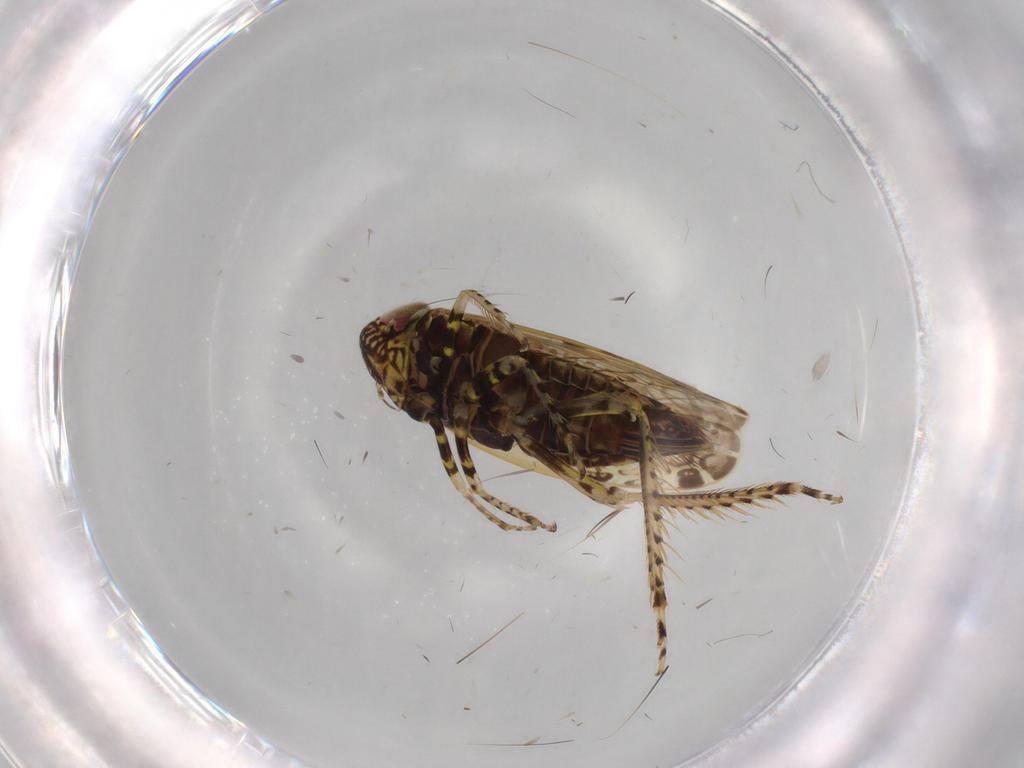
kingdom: Animalia
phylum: Arthropoda
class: Insecta
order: Hemiptera
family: Cicadellidae
